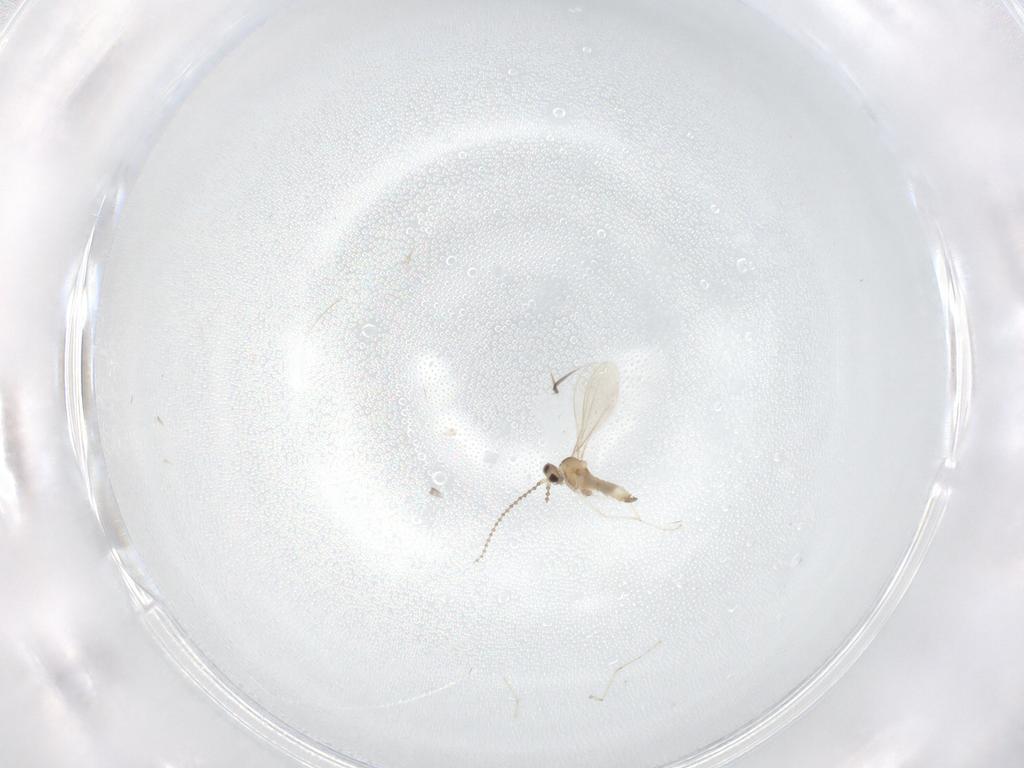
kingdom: Animalia
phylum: Arthropoda
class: Insecta
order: Diptera
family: Cecidomyiidae
